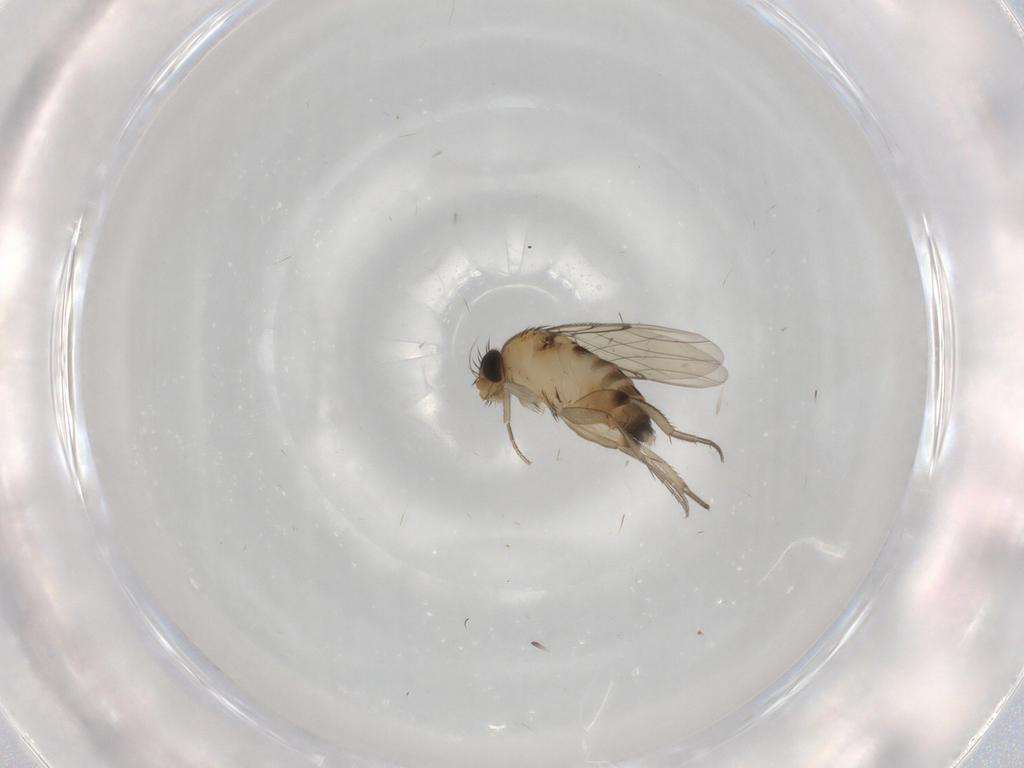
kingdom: Animalia
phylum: Arthropoda
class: Insecta
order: Diptera
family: Phoridae
